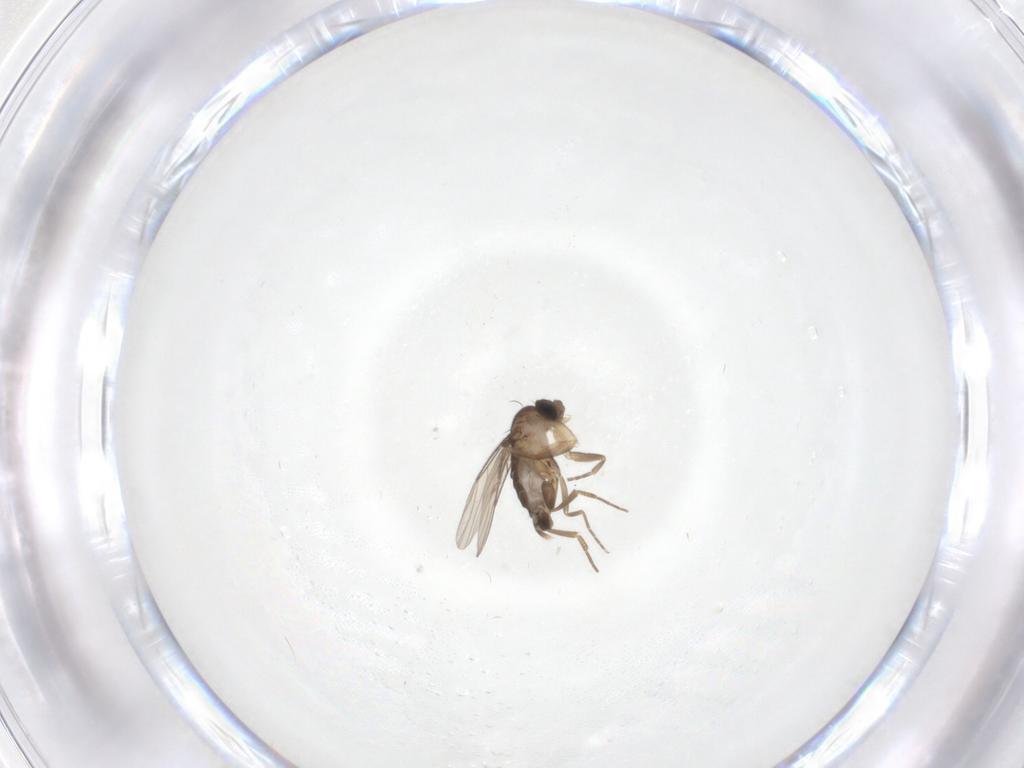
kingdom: Animalia
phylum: Arthropoda
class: Insecta
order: Diptera
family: Phoridae
